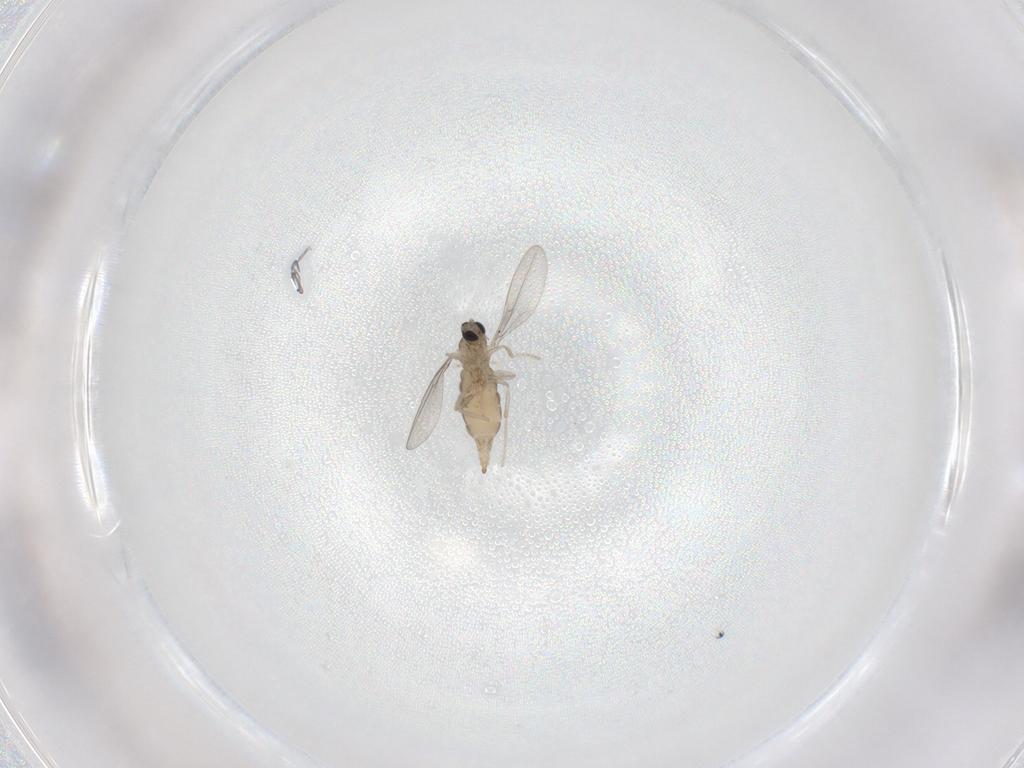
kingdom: Animalia
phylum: Arthropoda
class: Insecta
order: Diptera
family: Cecidomyiidae
